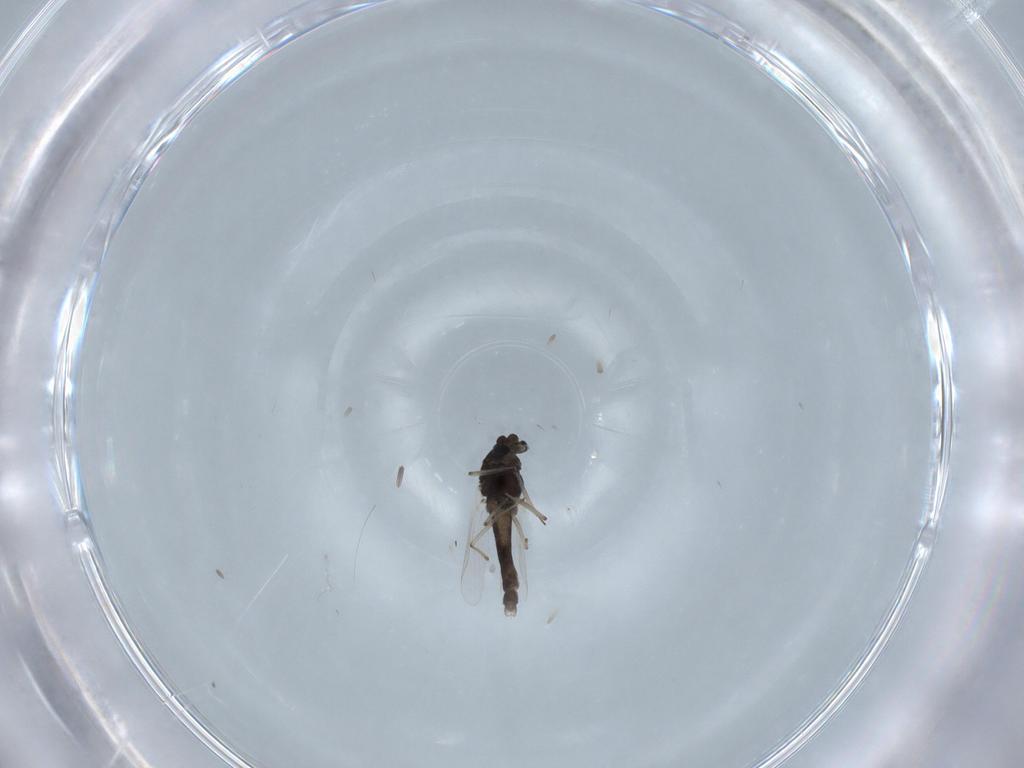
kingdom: Animalia
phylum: Arthropoda
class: Insecta
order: Diptera
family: Chironomidae
